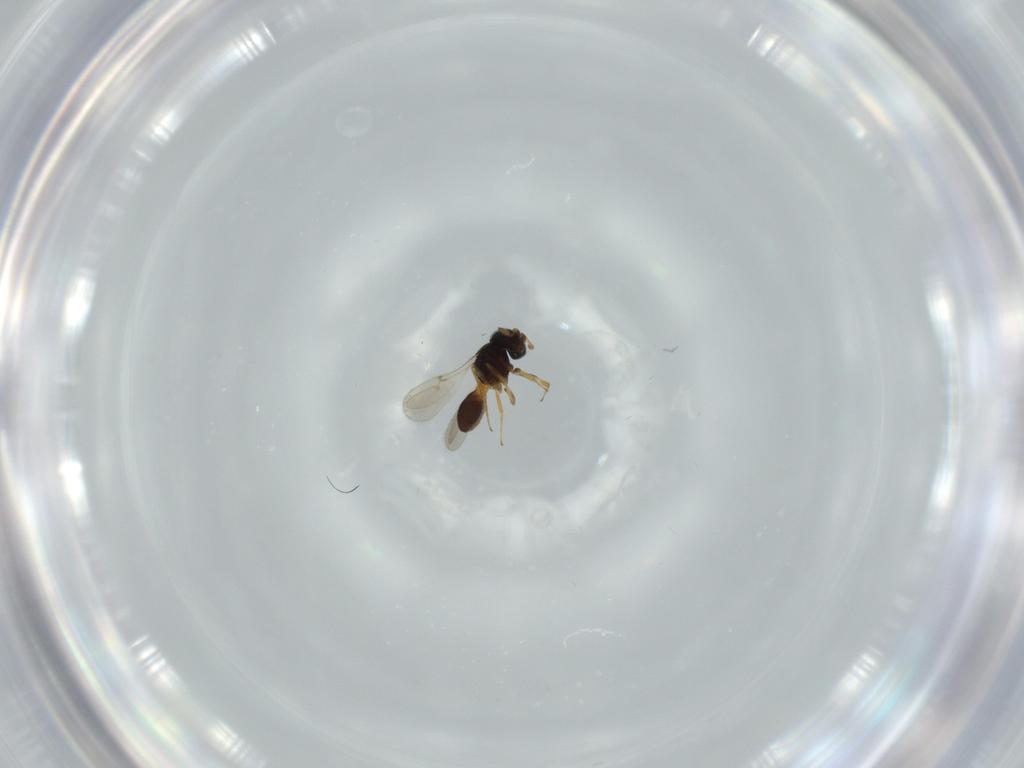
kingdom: Animalia
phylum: Arthropoda
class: Insecta
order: Hymenoptera
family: Scelionidae
